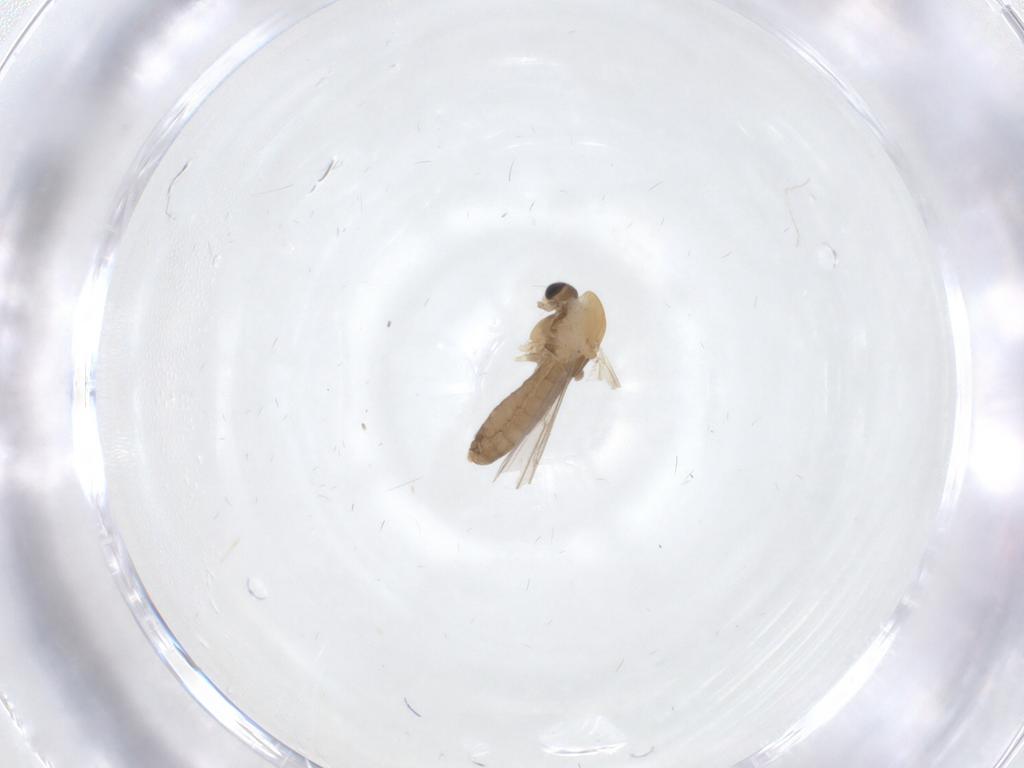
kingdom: Animalia
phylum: Arthropoda
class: Insecta
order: Diptera
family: Chironomidae
